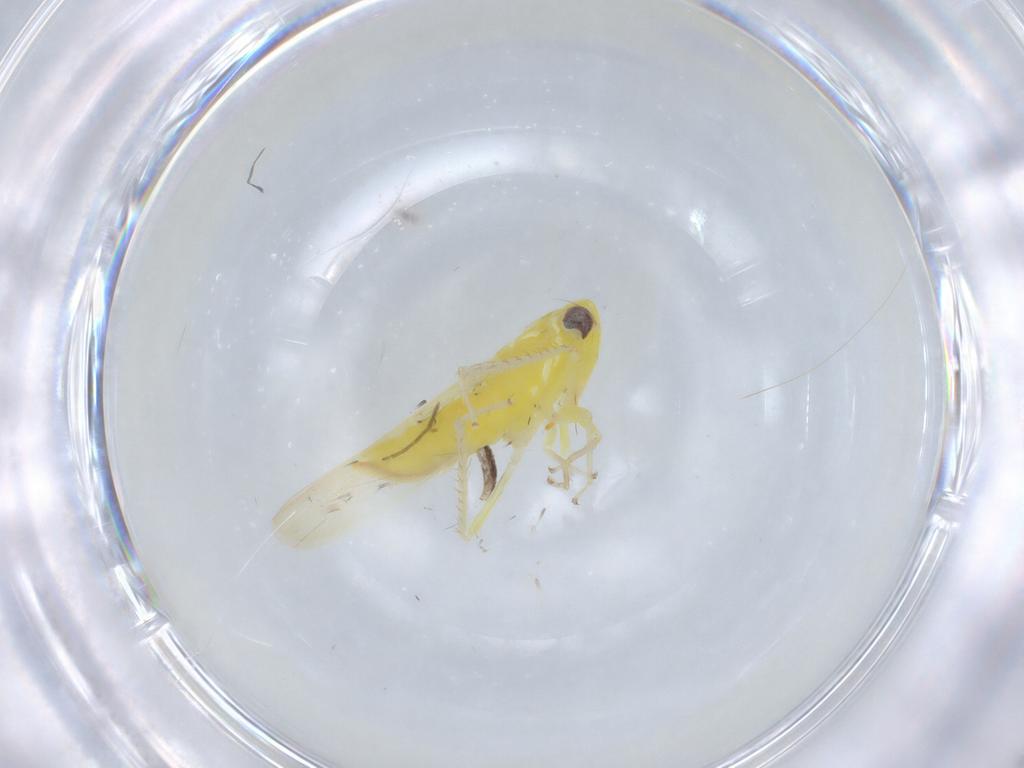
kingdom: Animalia
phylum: Arthropoda
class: Insecta
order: Hemiptera
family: Cicadellidae
